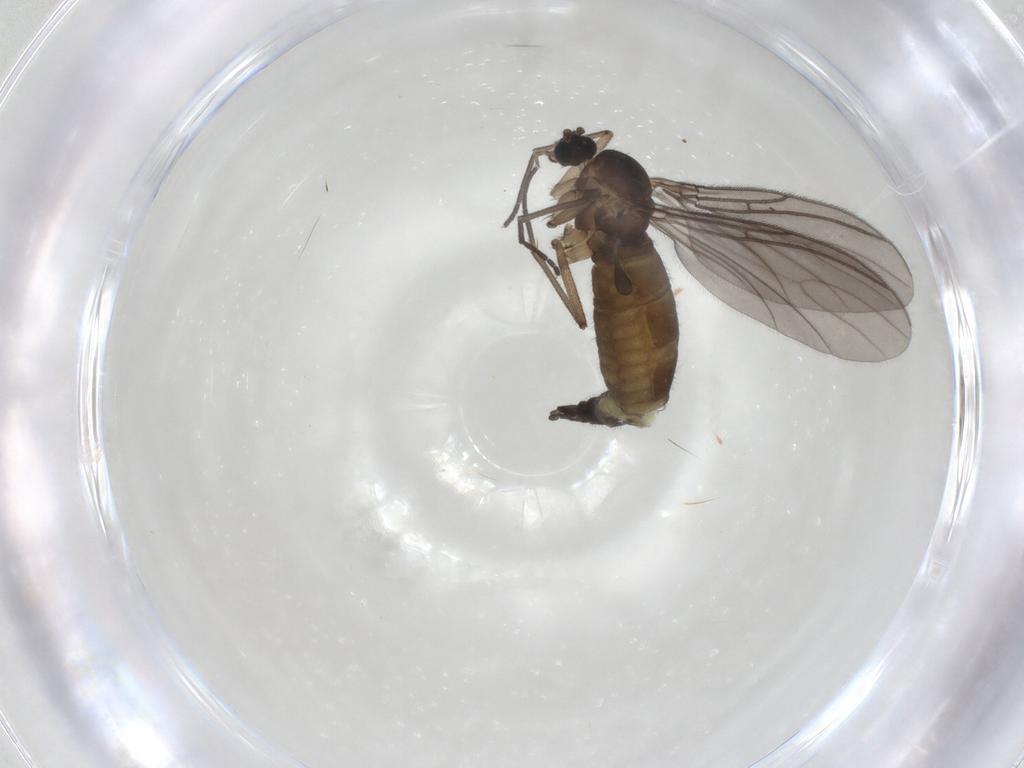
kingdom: Animalia
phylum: Arthropoda
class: Insecta
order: Diptera
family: Sciaridae
